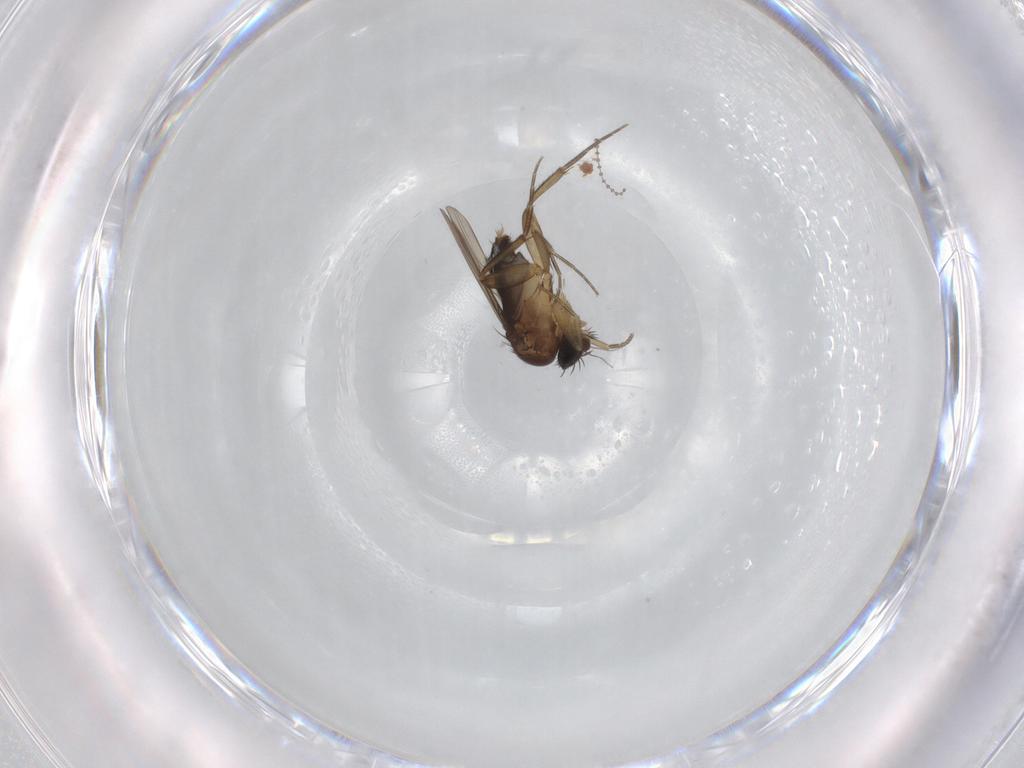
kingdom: Animalia
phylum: Arthropoda
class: Insecta
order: Diptera
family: Phoridae
